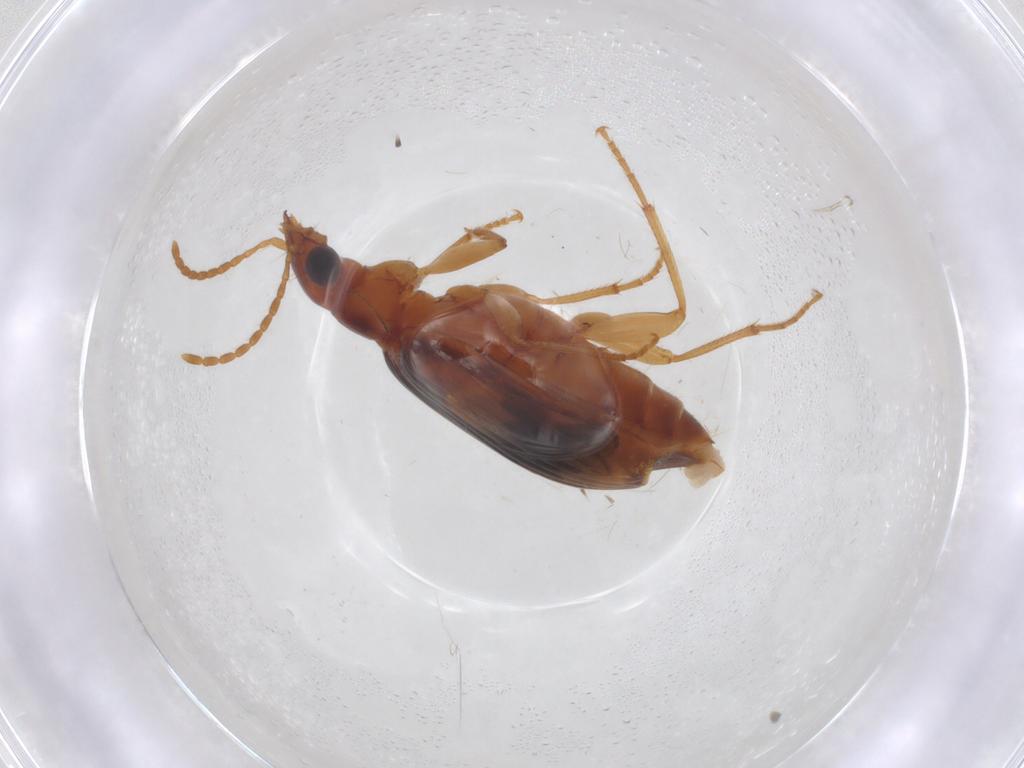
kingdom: Animalia
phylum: Arthropoda
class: Insecta
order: Coleoptera
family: Carabidae
